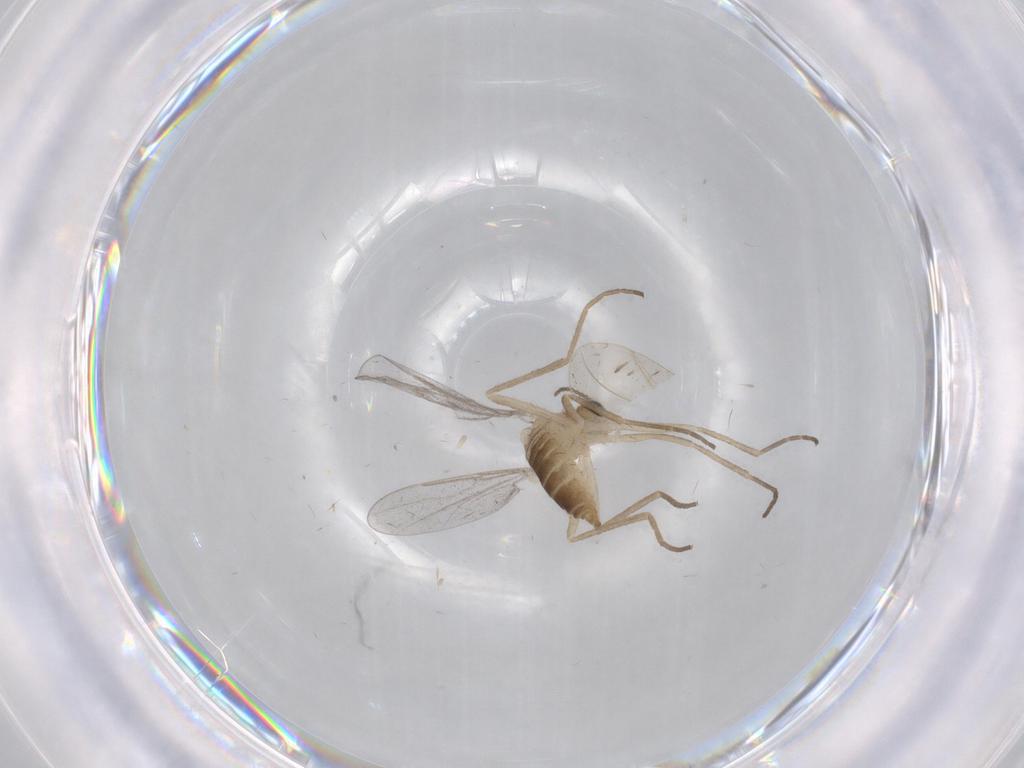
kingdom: Animalia
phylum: Arthropoda
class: Insecta
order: Diptera
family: Cecidomyiidae
